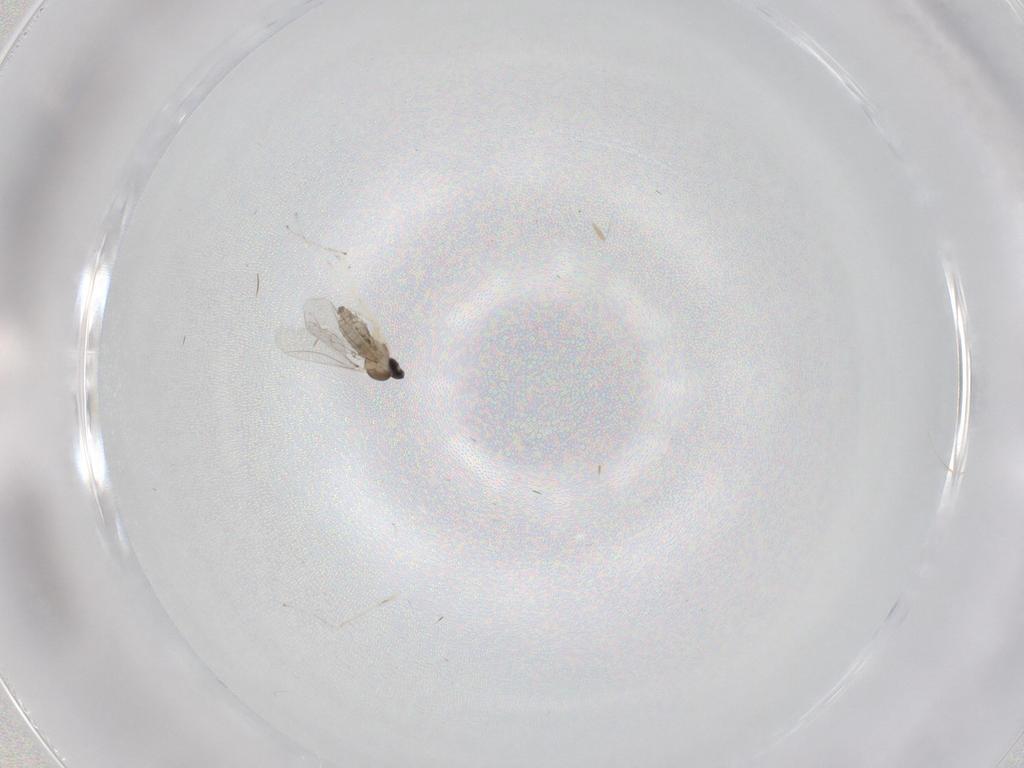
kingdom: Animalia
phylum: Arthropoda
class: Insecta
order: Diptera
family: Cecidomyiidae
